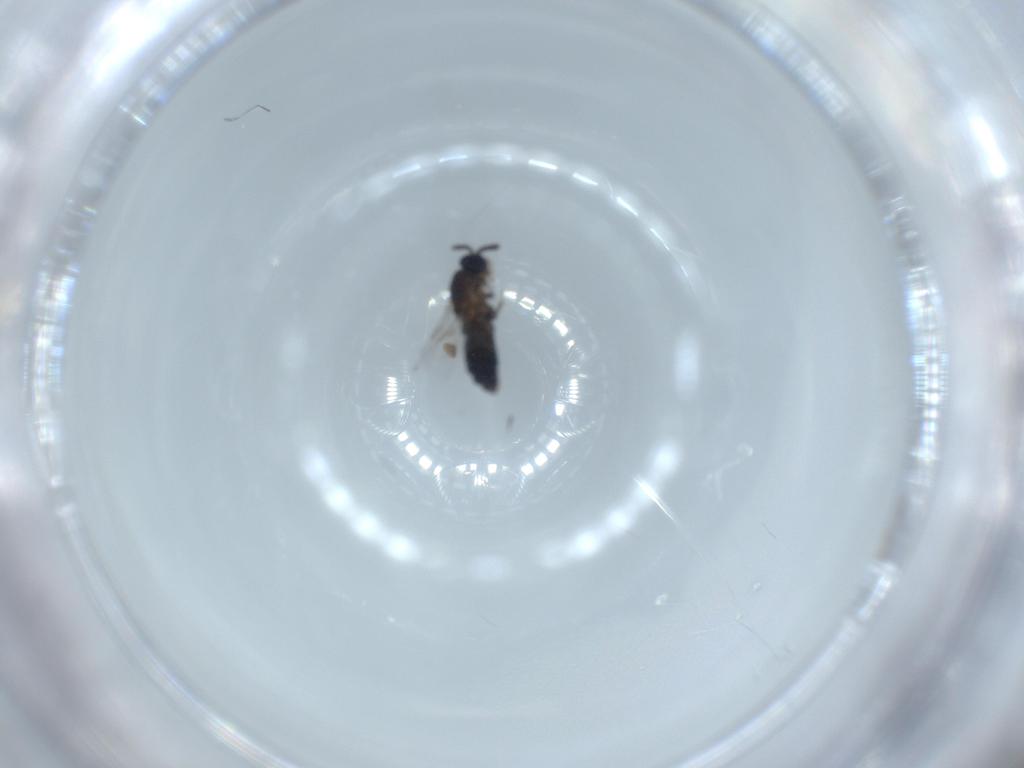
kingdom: Animalia
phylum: Arthropoda
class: Insecta
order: Diptera
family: Scatopsidae
